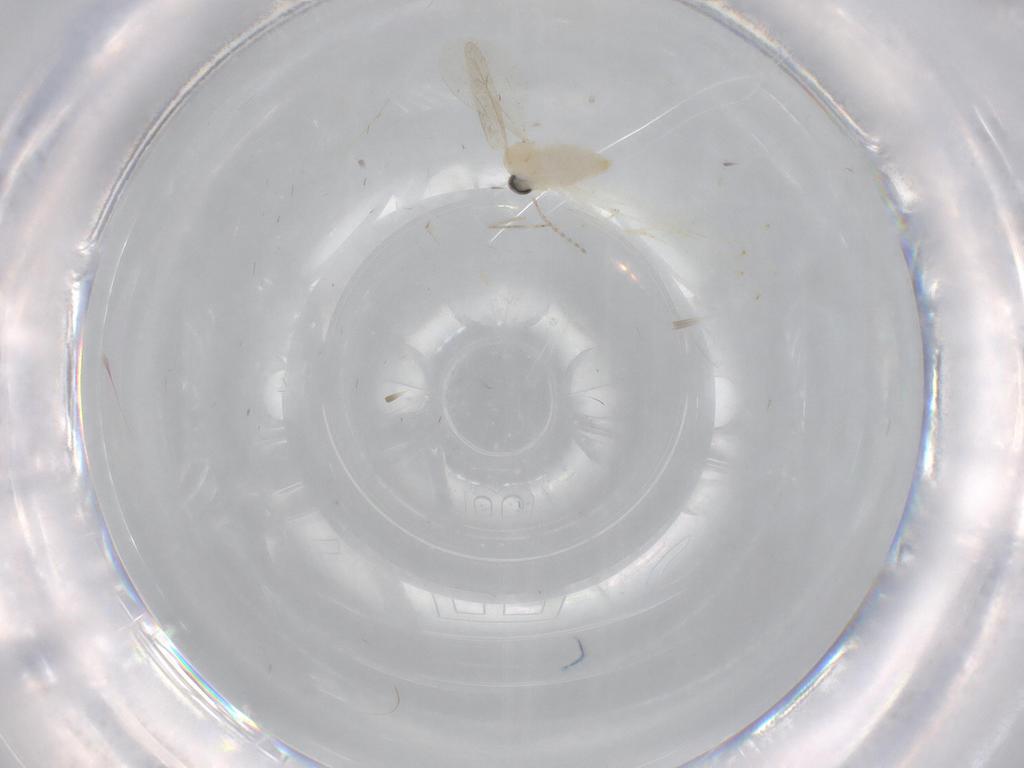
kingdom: Animalia
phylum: Arthropoda
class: Insecta
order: Diptera
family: Cecidomyiidae
